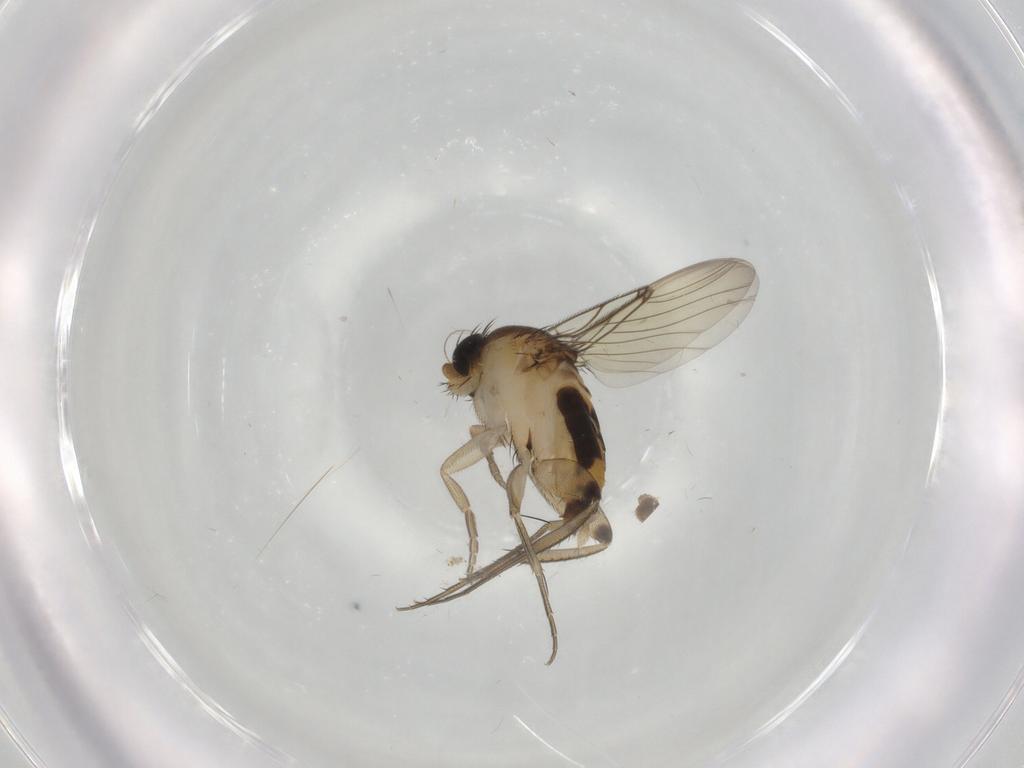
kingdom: Animalia
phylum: Arthropoda
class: Insecta
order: Diptera
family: Phoridae
